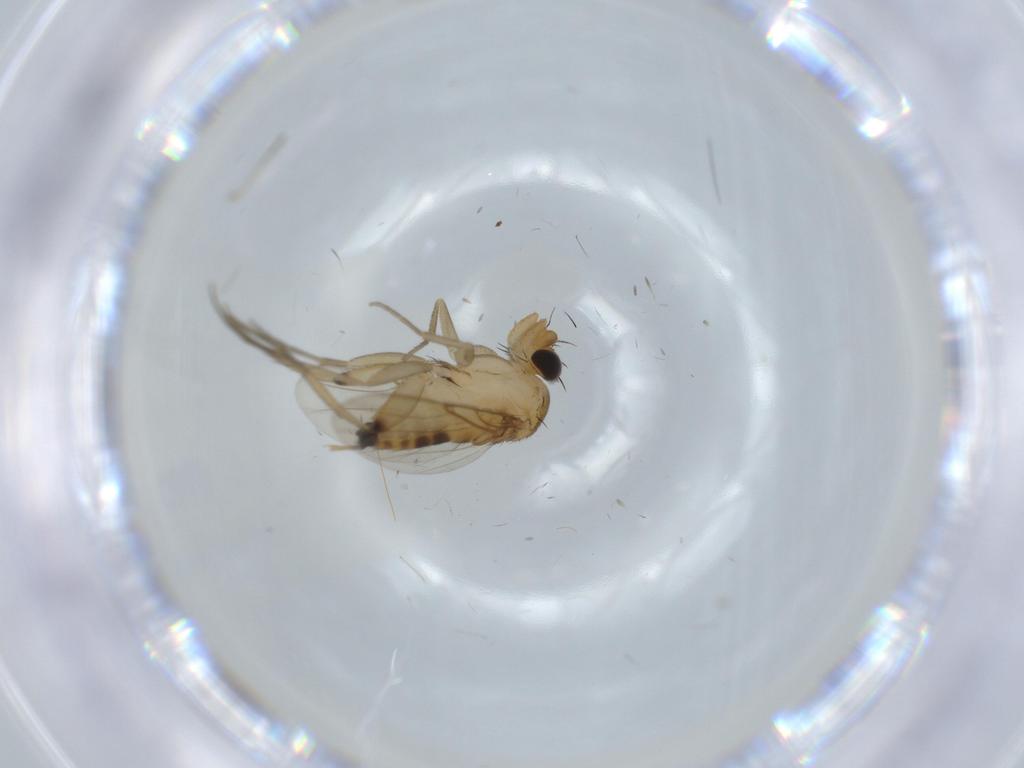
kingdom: Animalia
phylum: Arthropoda
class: Insecta
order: Diptera
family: Phoridae
